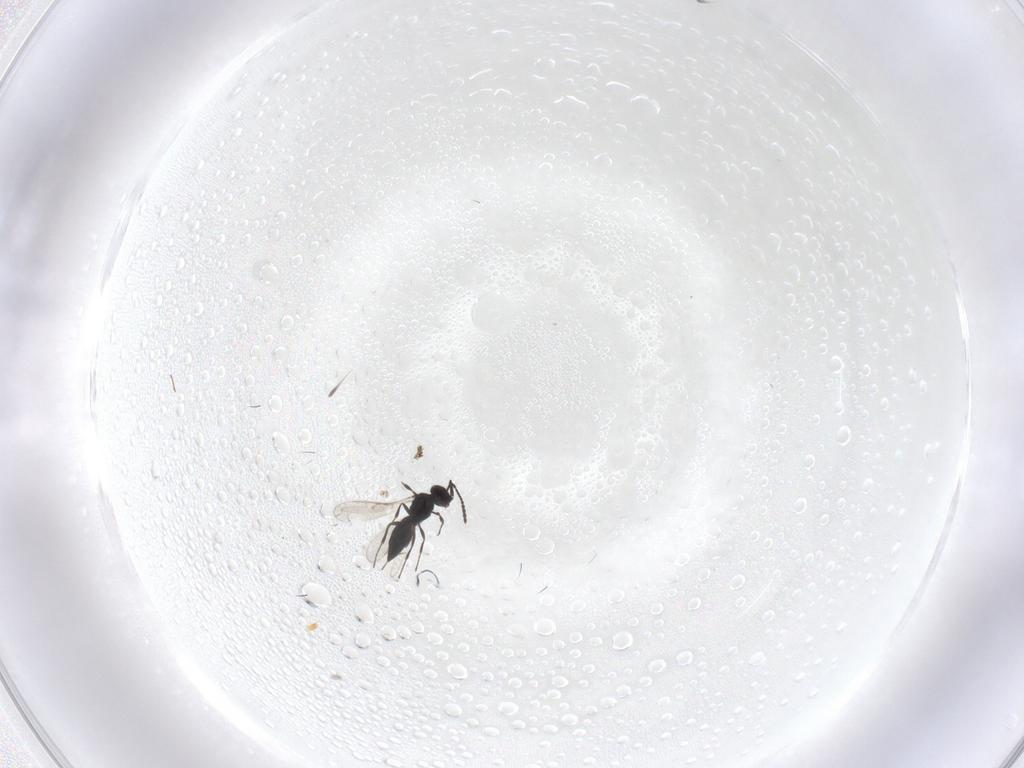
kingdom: Animalia
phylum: Arthropoda
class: Insecta
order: Hymenoptera
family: Scelionidae
